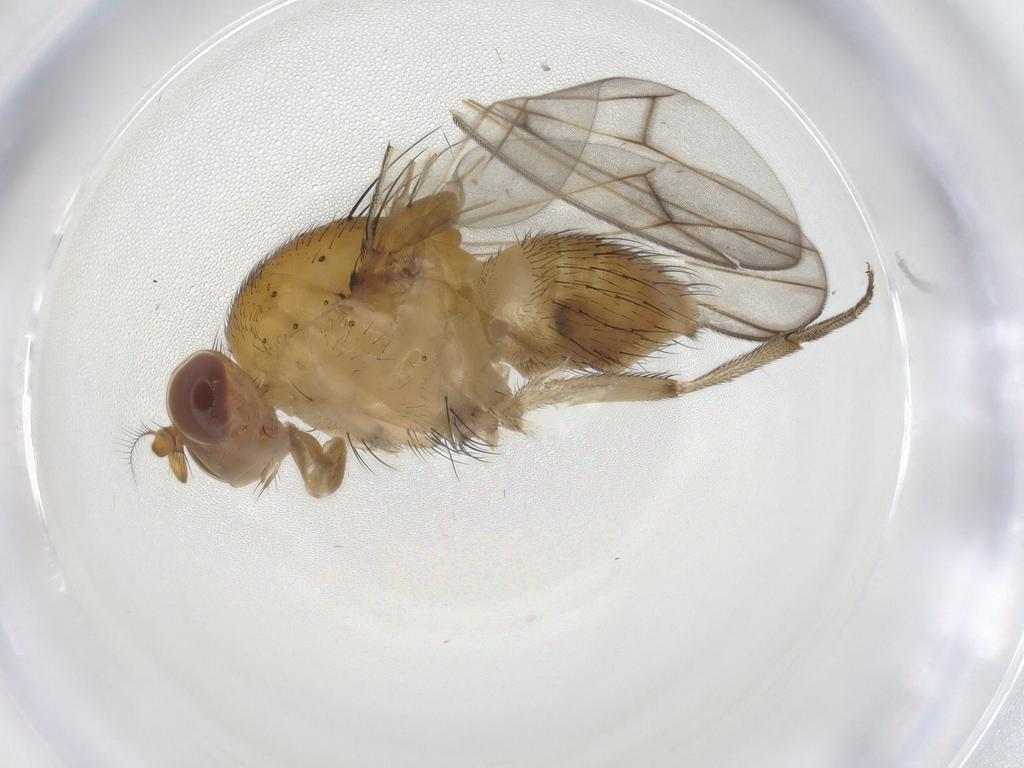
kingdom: Animalia
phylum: Arthropoda
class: Insecta
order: Diptera
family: Lauxaniidae
